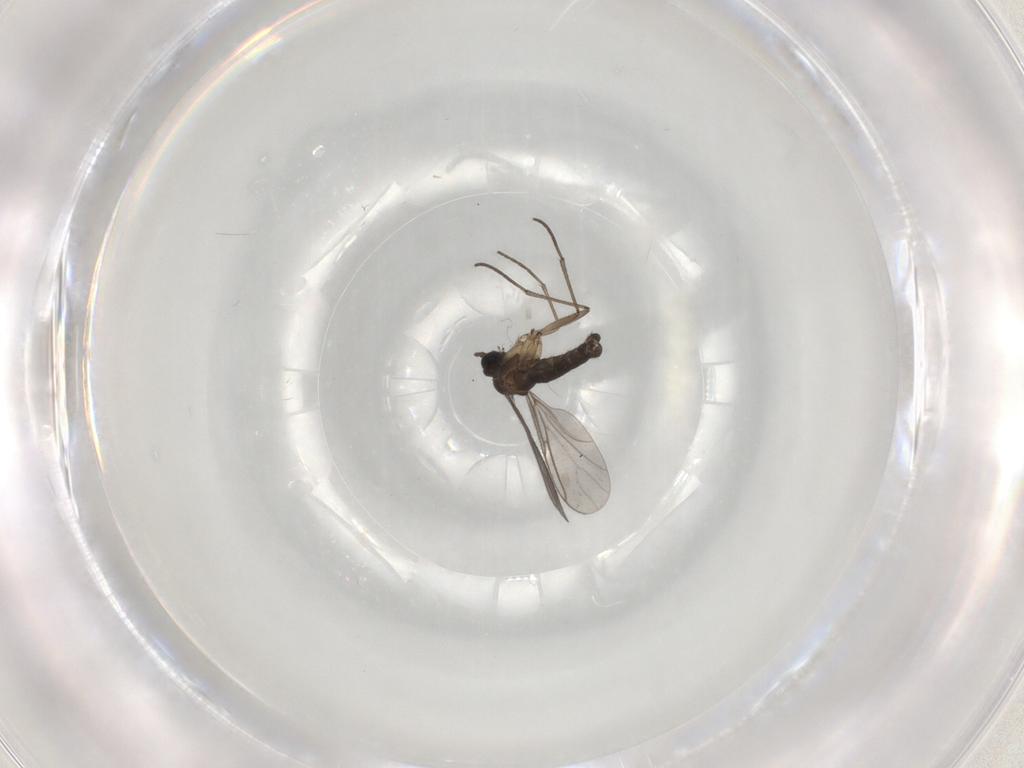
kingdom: Animalia
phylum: Arthropoda
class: Insecta
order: Diptera
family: Sciaridae
